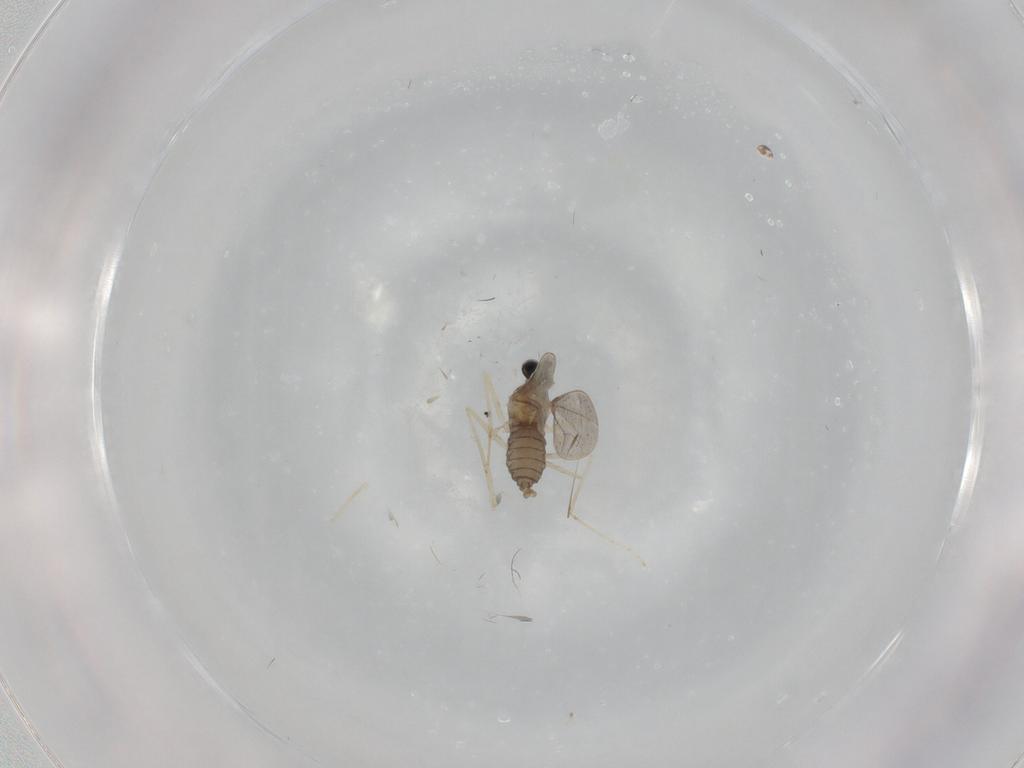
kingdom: Animalia
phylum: Arthropoda
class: Insecta
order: Diptera
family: Cecidomyiidae
